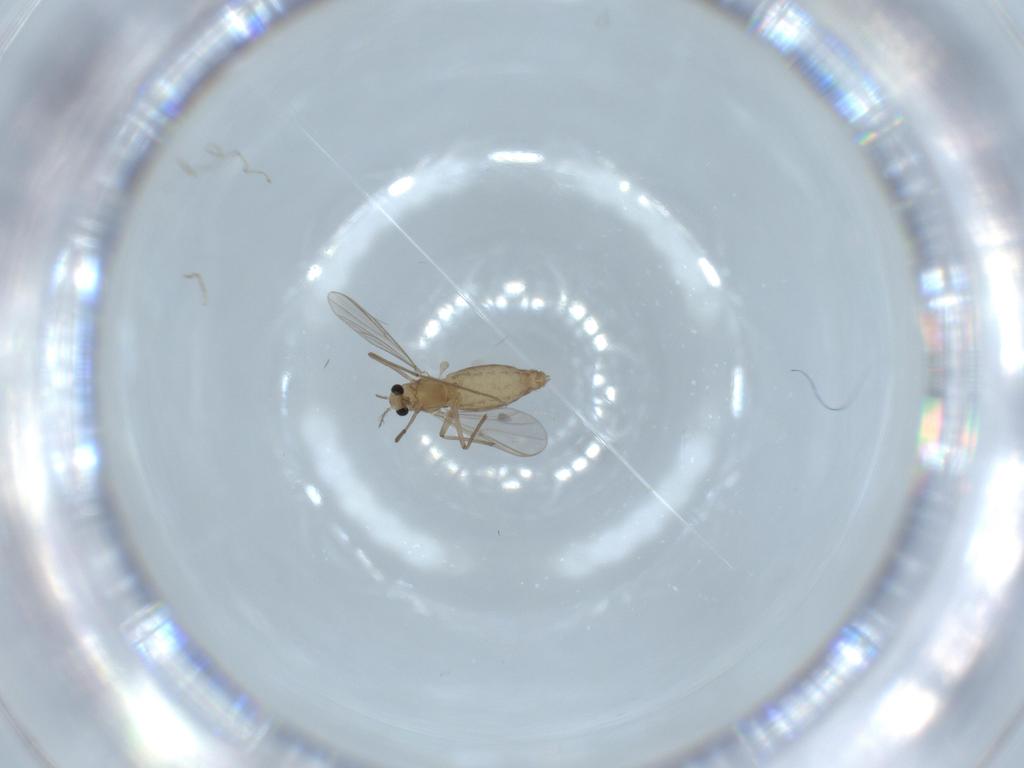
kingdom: Animalia
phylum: Arthropoda
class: Insecta
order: Diptera
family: Chironomidae
